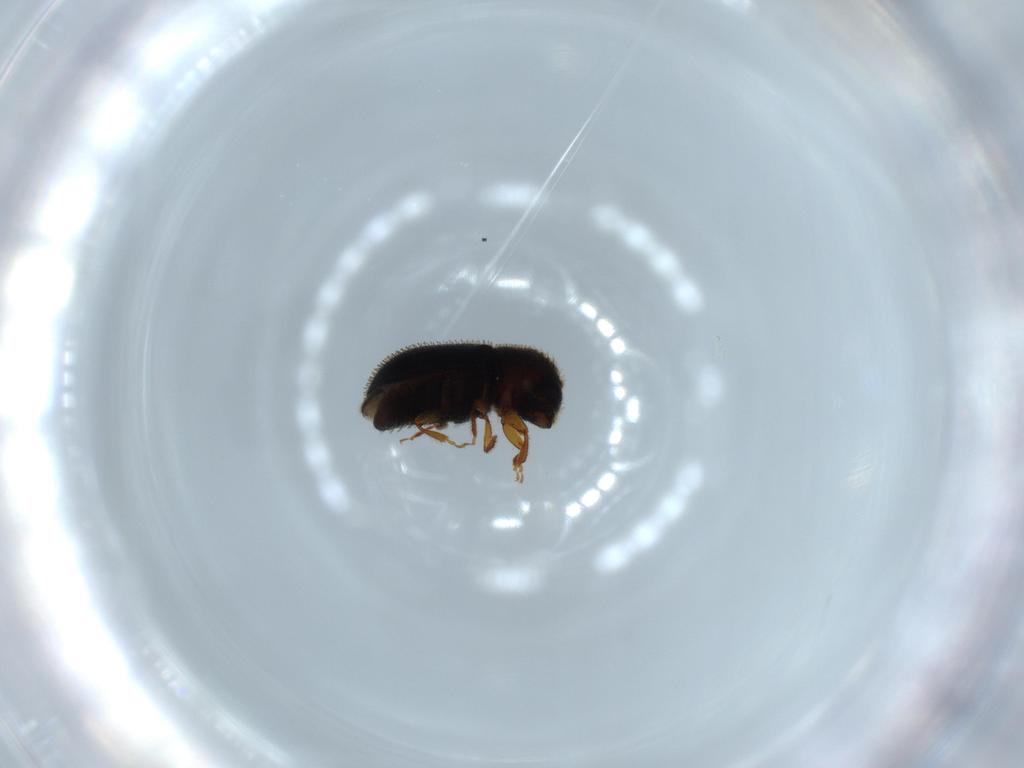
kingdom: Animalia
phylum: Arthropoda
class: Insecta
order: Coleoptera
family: Curculionidae
